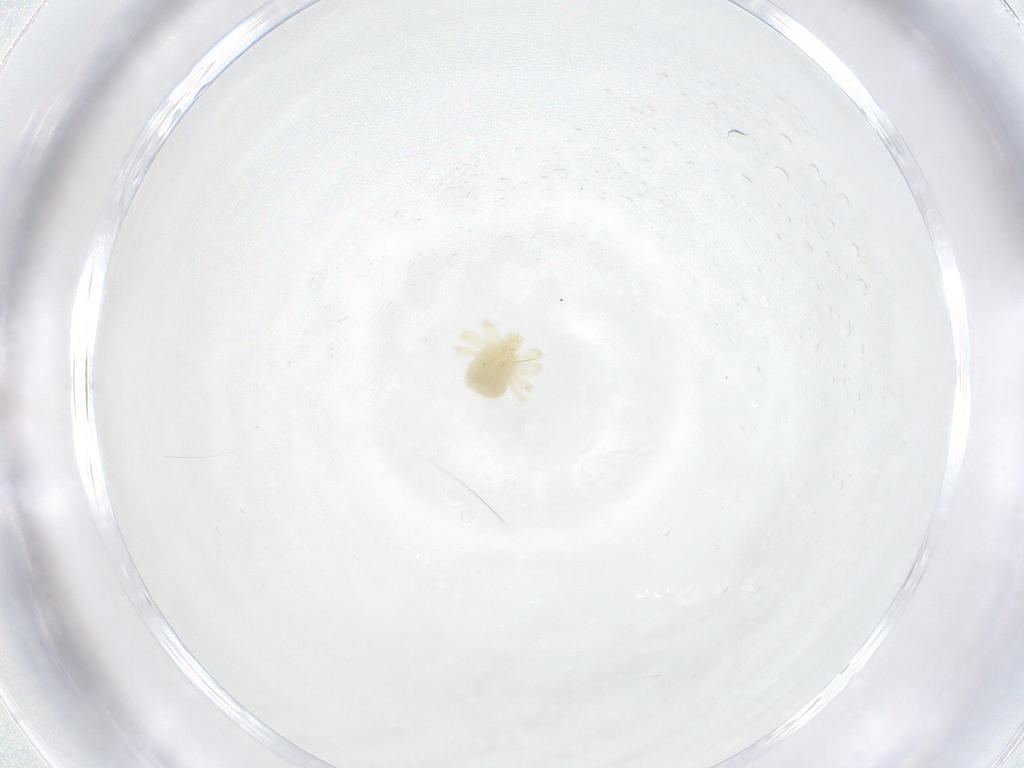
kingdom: Animalia
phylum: Arthropoda
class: Arachnida
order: Trombidiformes
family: Anystidae
